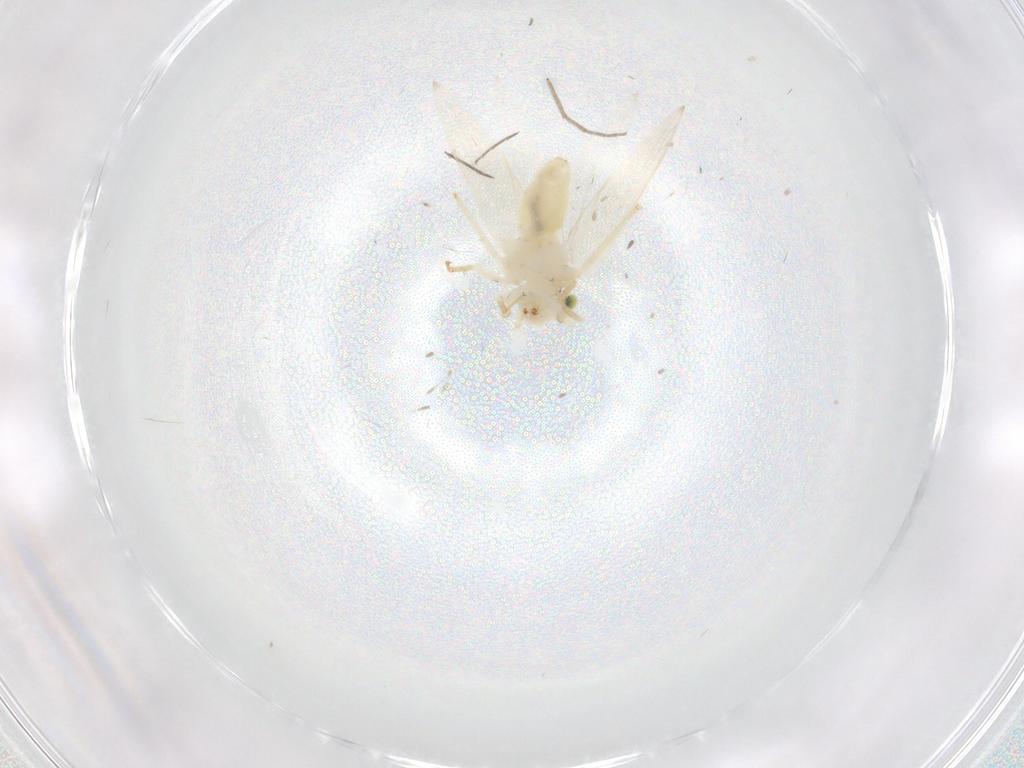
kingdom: Animalia
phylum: Arthropoda
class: Insecta
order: Psocodea
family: Lepidopsocidae
